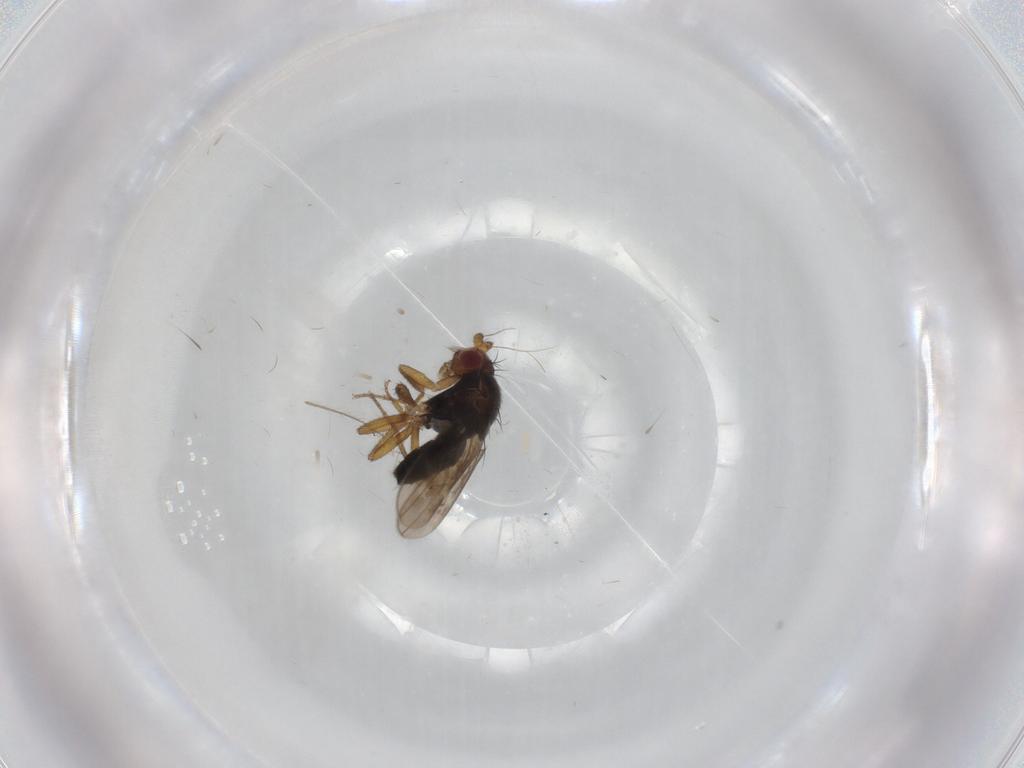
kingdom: Animalia
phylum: Arthropoda
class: Insecta
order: Diptera
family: Sphaeroceridae
